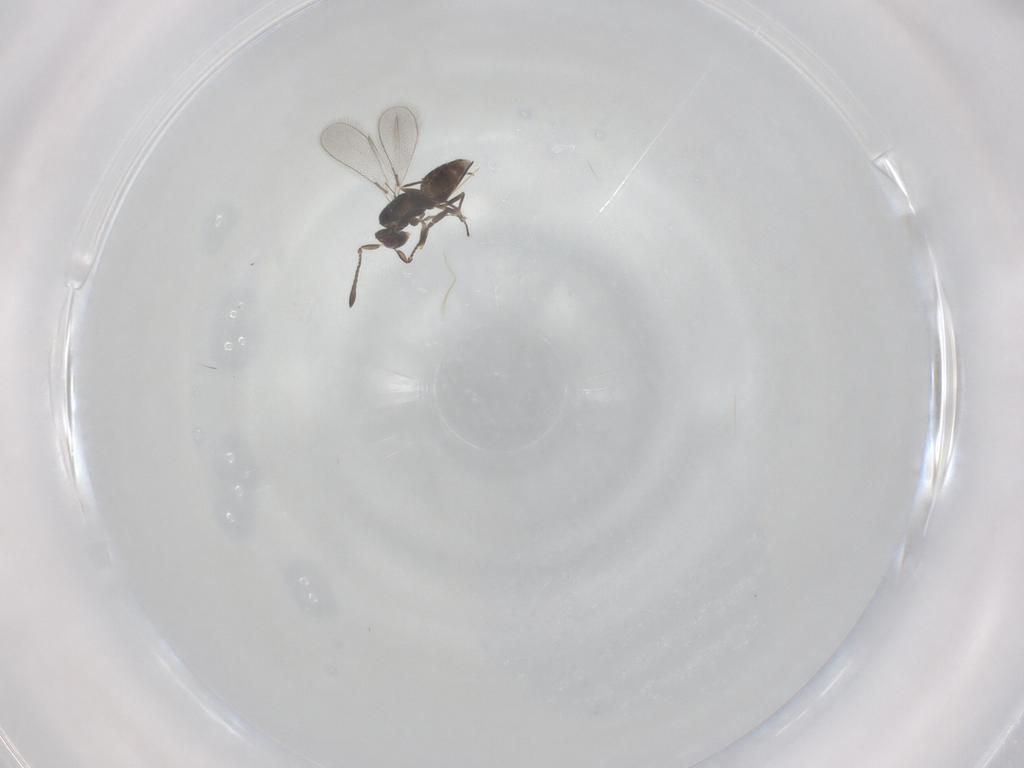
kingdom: Animalia
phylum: Arthropoda
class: Insecta
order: Hymenoptera
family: Mymaridae
